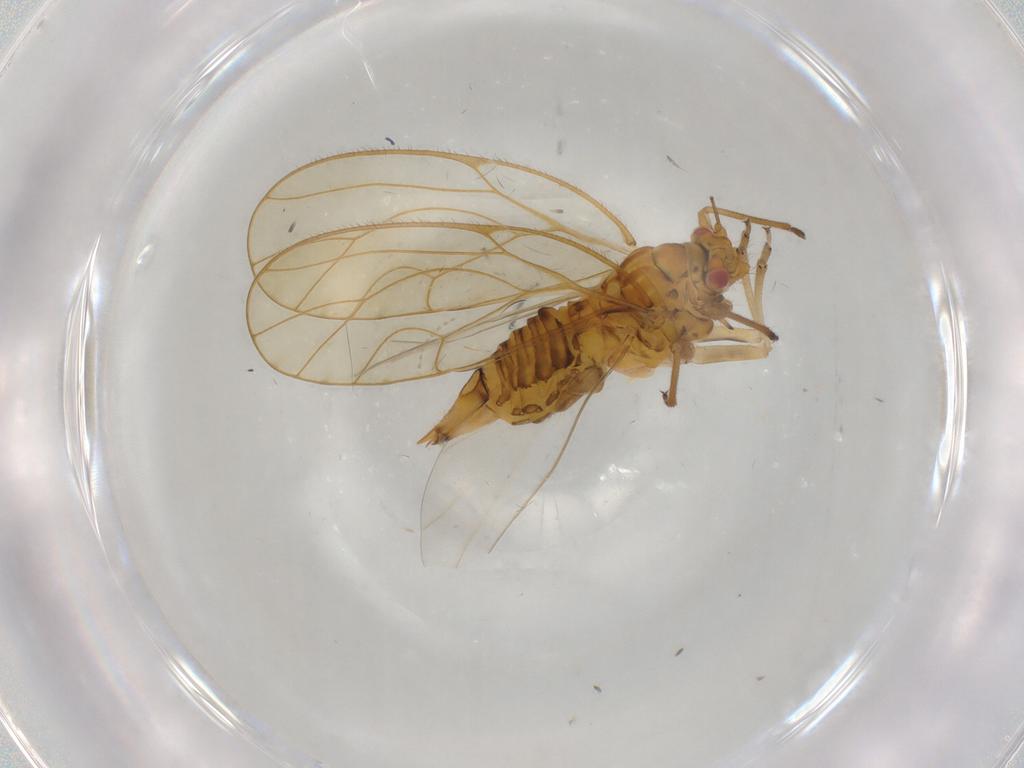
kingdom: Animalia
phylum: Arthropoda
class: Insecta
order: Hemiptera
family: Psyllidae
